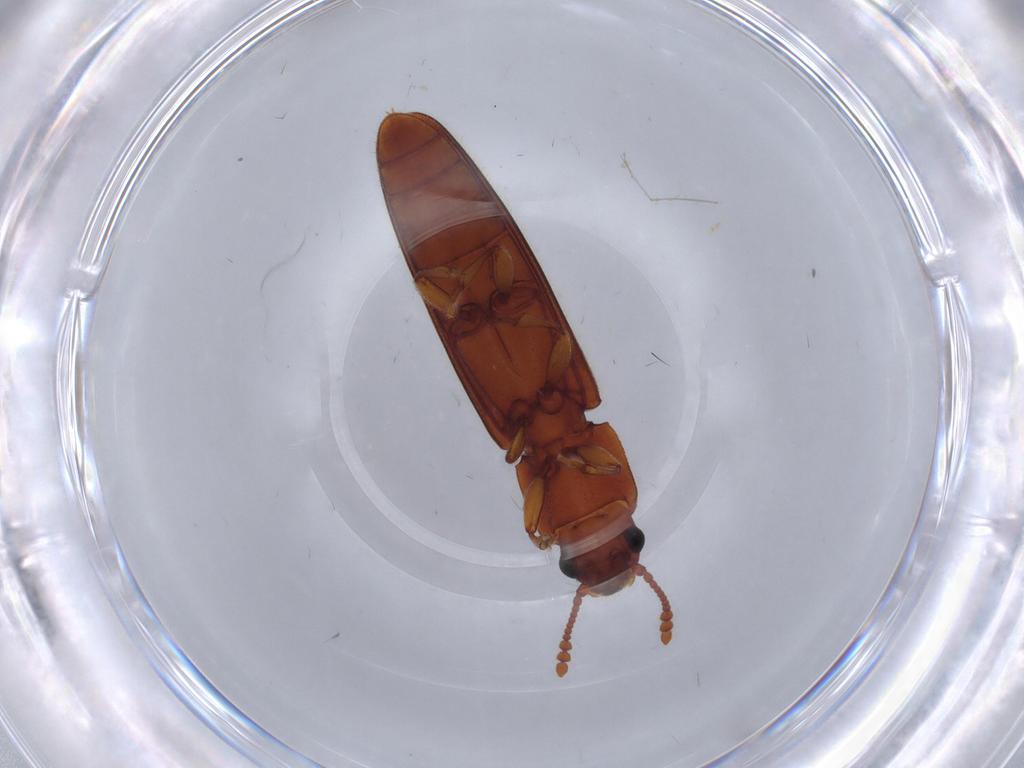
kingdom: Animalia
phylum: Arthropoda
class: Insecta
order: Coleoptera
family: Erotylidae
